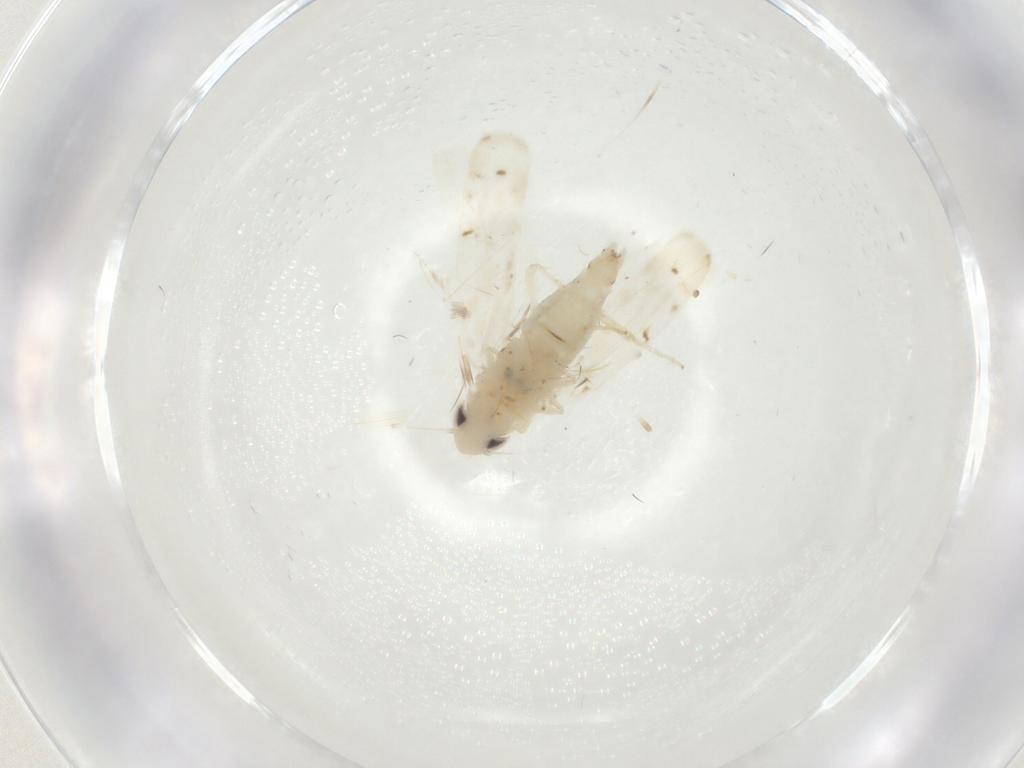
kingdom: Animalia
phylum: Arthropoda
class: Insecta
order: Hemiptera
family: Cicadellidae
